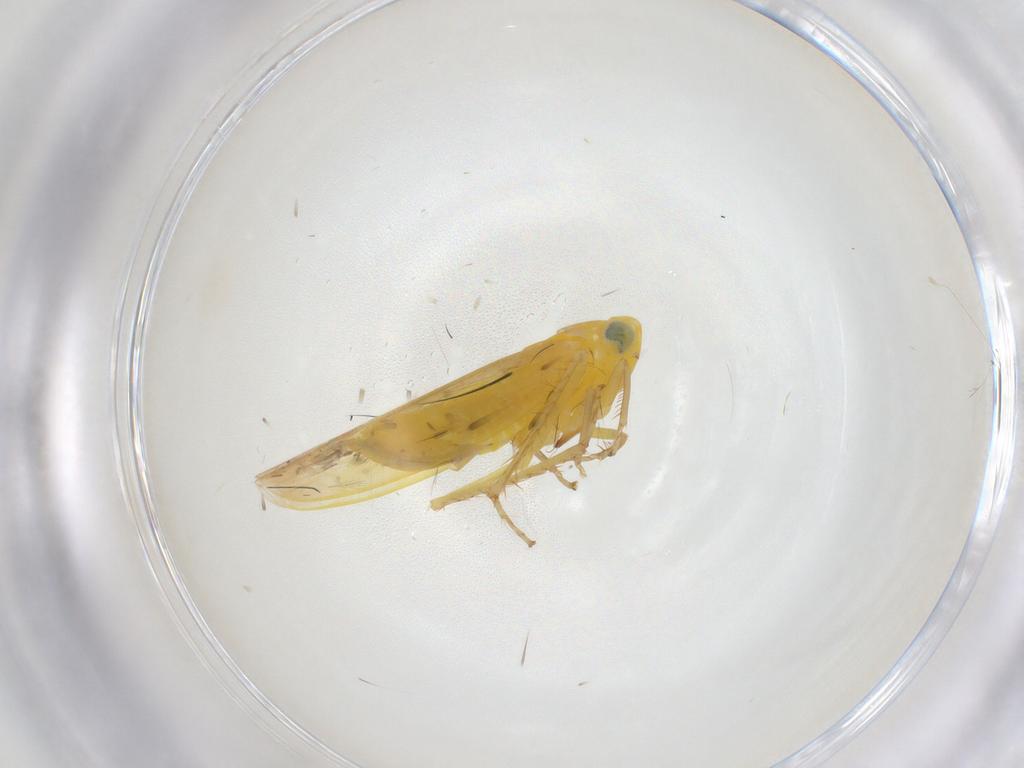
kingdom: Animalia
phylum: Arthropoda
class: Insecta
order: Hemiptera
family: Cicadellidae
